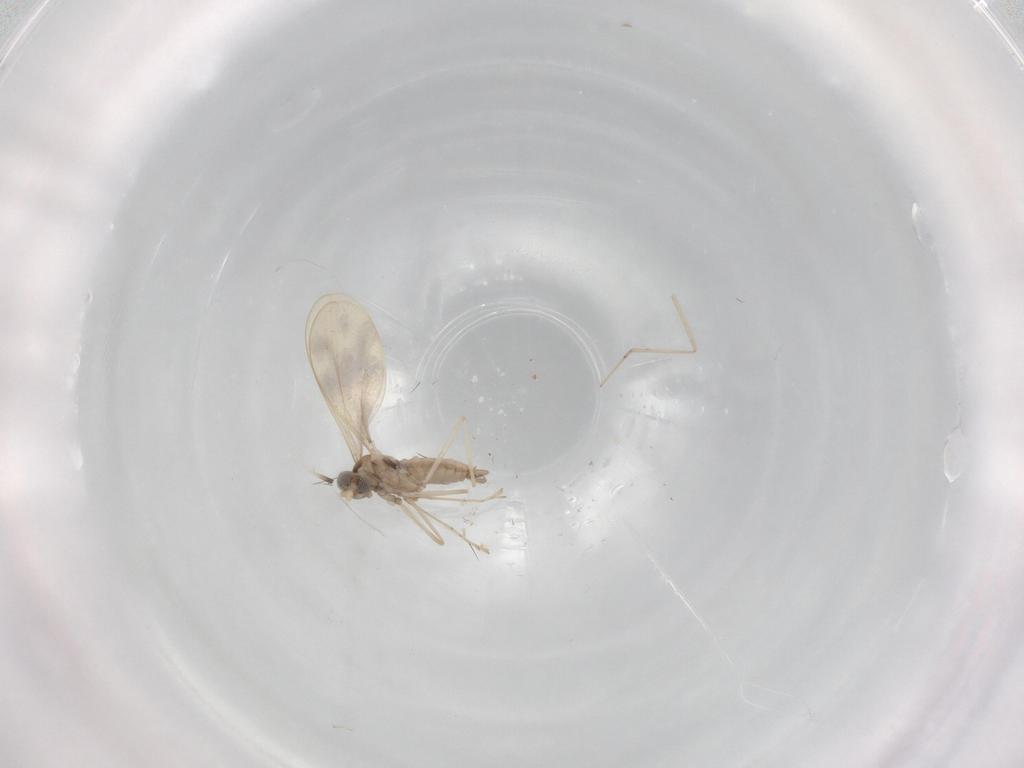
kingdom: Animalia
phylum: Arthropoda
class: Insecta
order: Diptera
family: Cecidomyiidae
